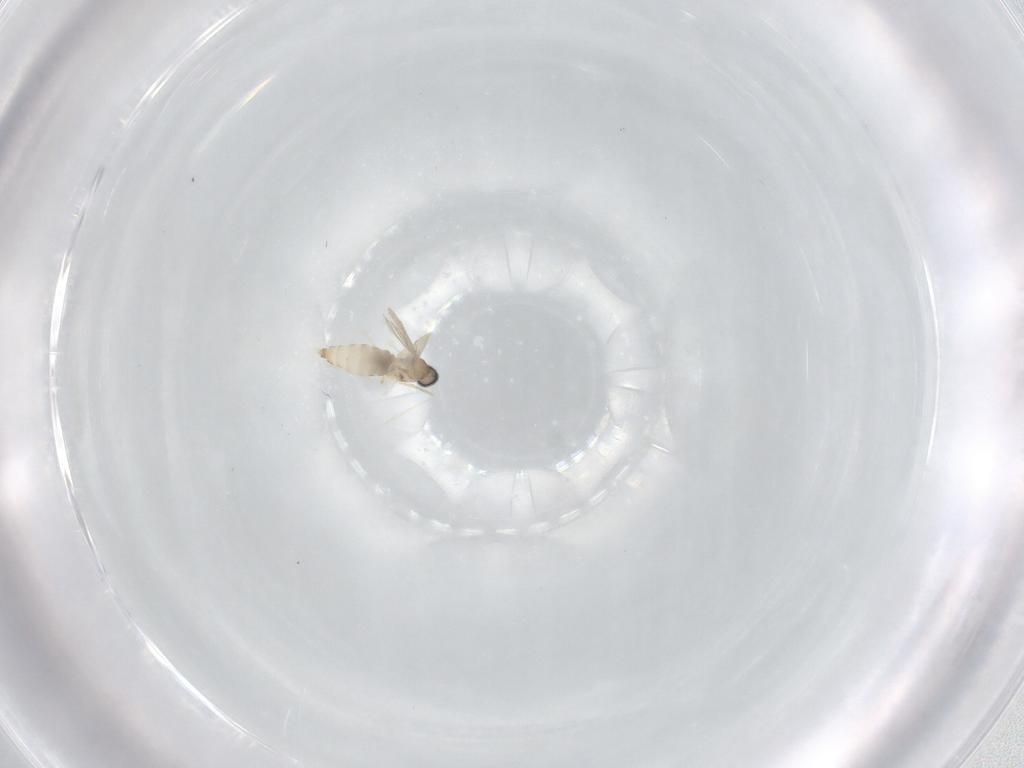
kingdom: Animalia
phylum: Arthropoda
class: Insecta
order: Diptera
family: Cecidomyiidae
